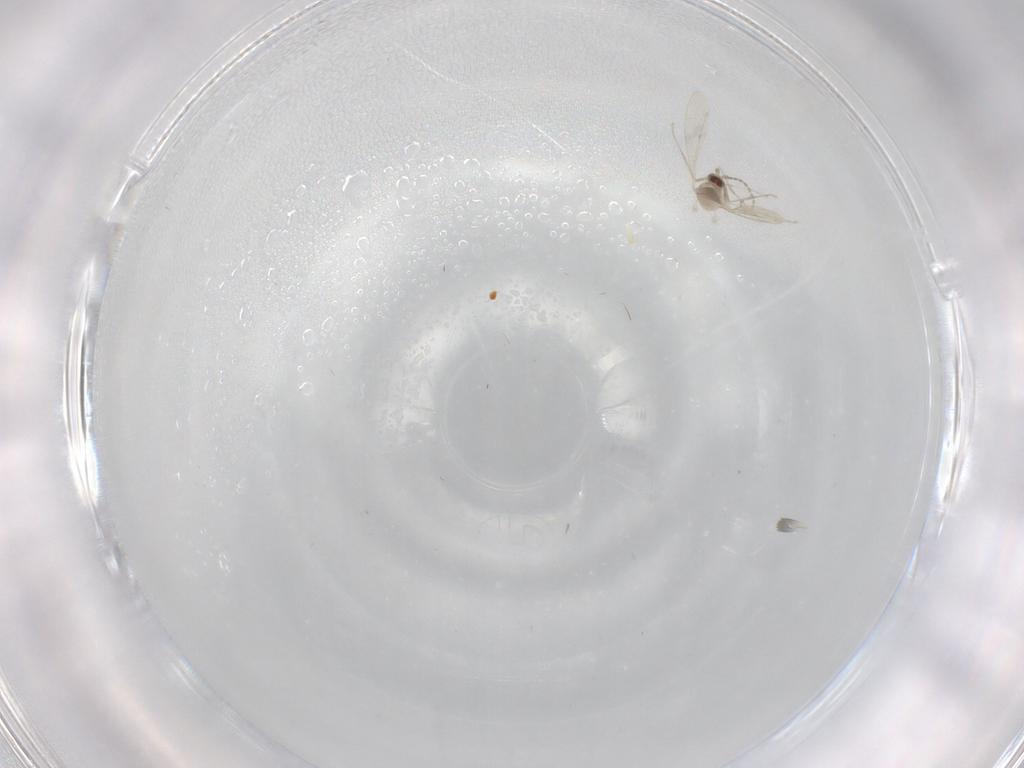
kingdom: Animalia
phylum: Arthropoda
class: Insecta
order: Diptera
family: Cecidomyiidae
